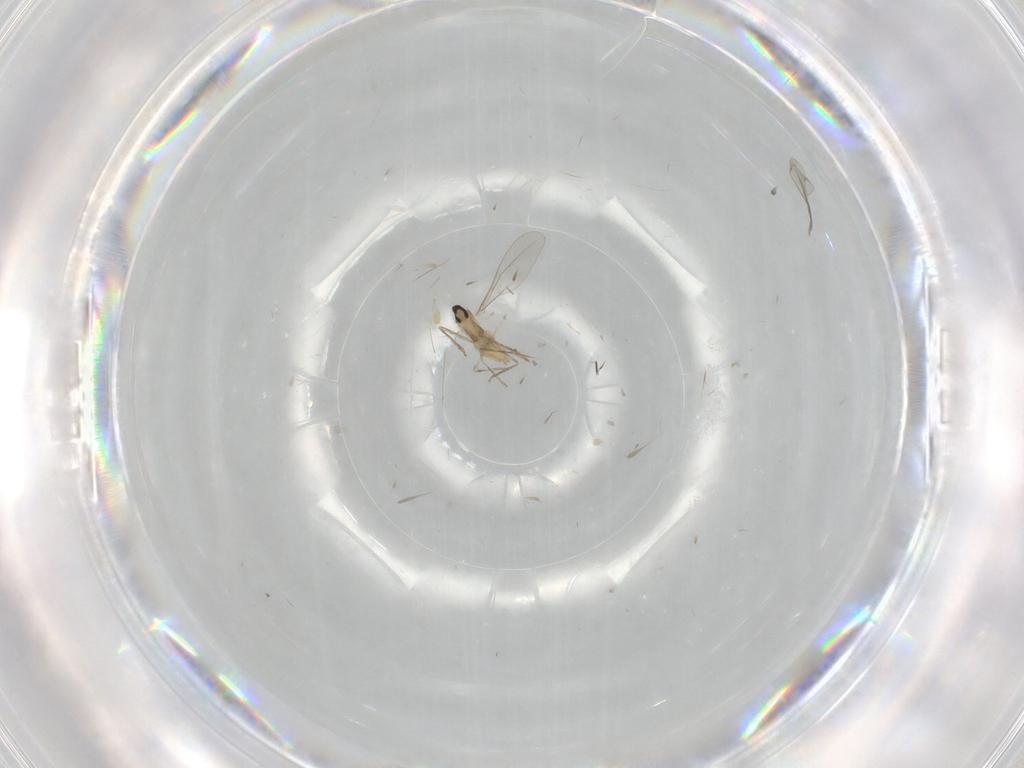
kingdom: Animalia
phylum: Arthropoda
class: Insecta
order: Diptera
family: Cecidomyiidae
